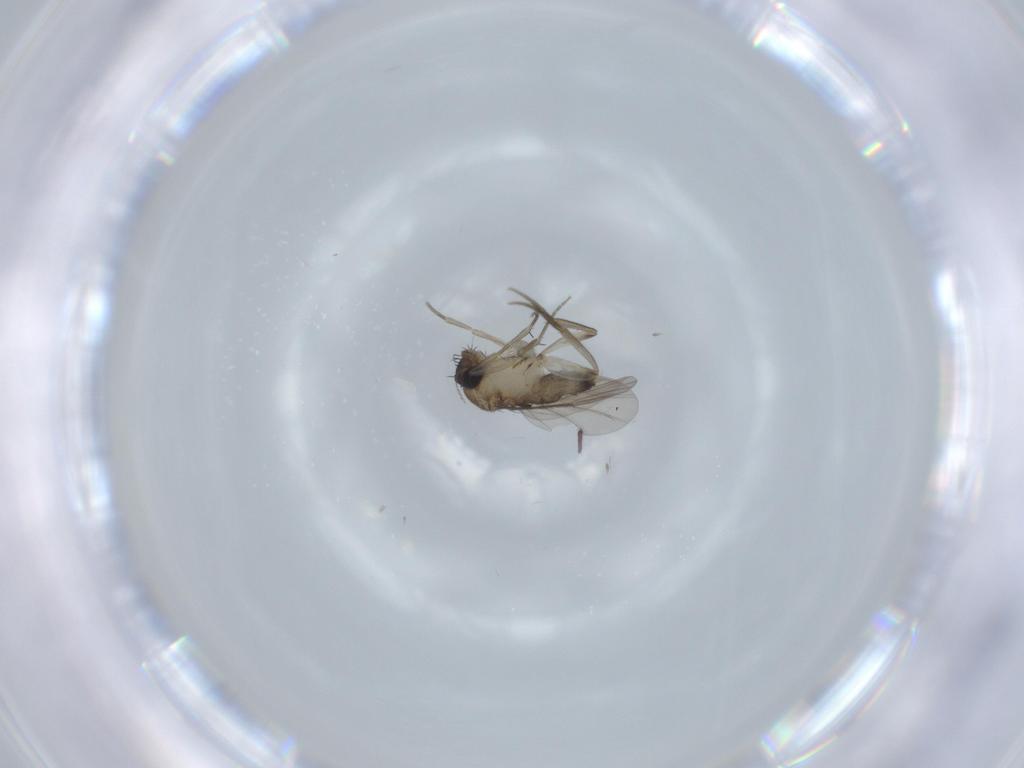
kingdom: Animalia
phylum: Arthropoda
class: Insecta
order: Diptera
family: Phoridae
